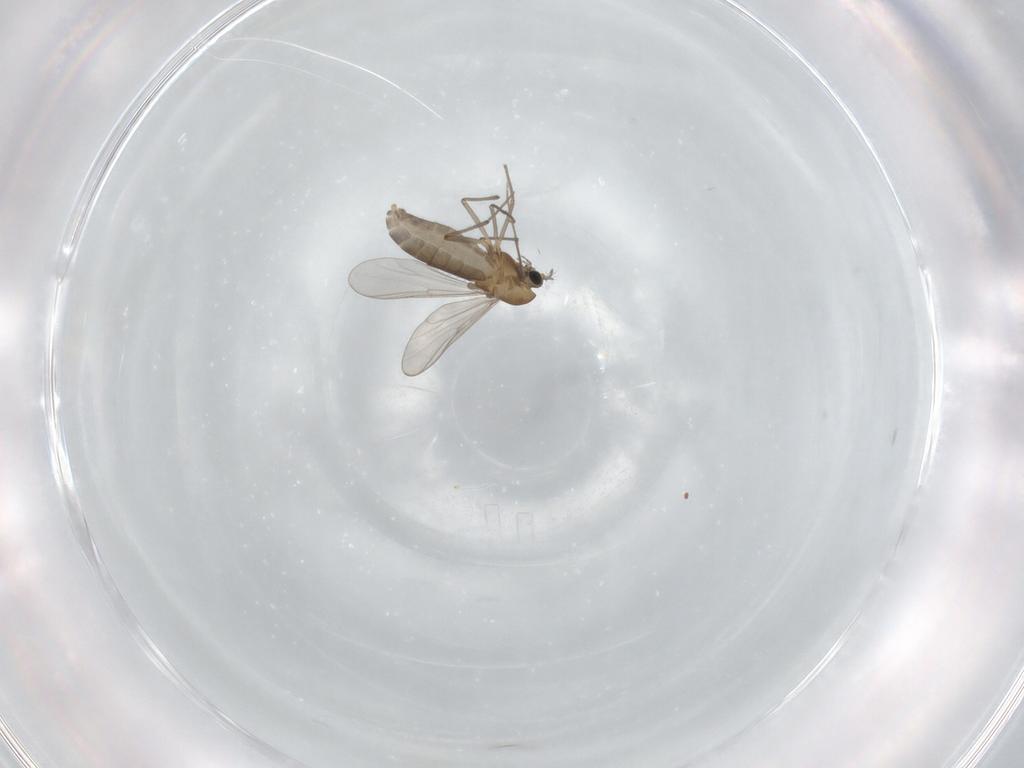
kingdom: Animalia
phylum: Arthropoda
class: Insecta
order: Diptera
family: Chironomidae
